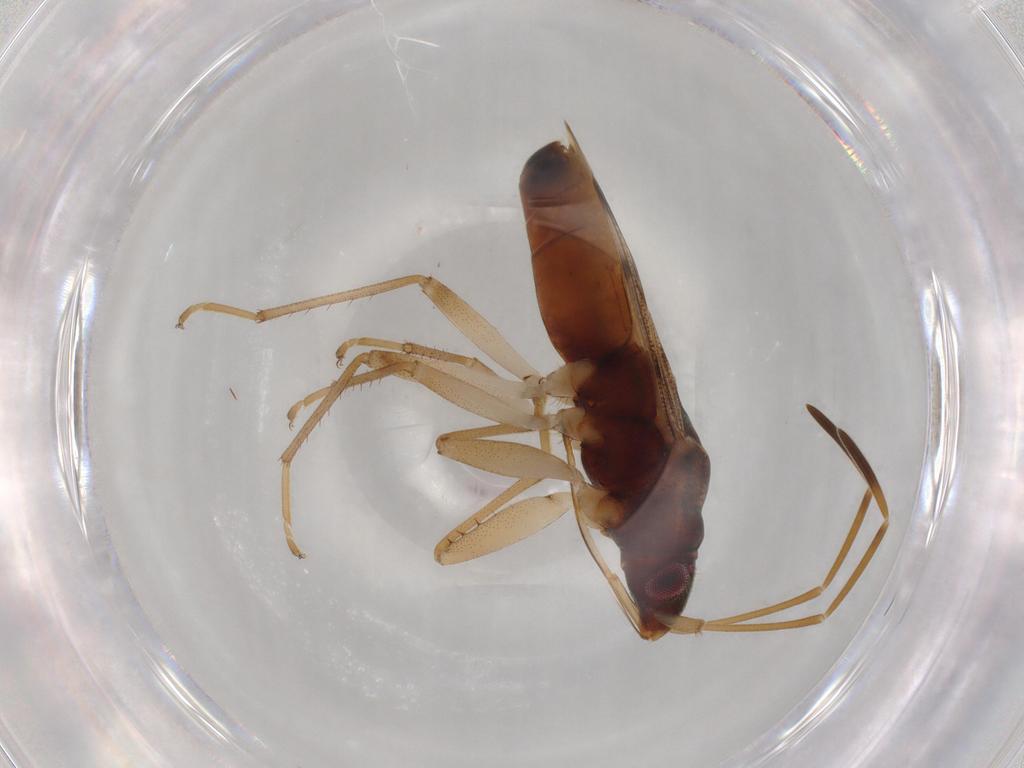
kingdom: Animalia
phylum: Arthropoda
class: Insecta
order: Hemiptera
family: Rhyparochromidae
